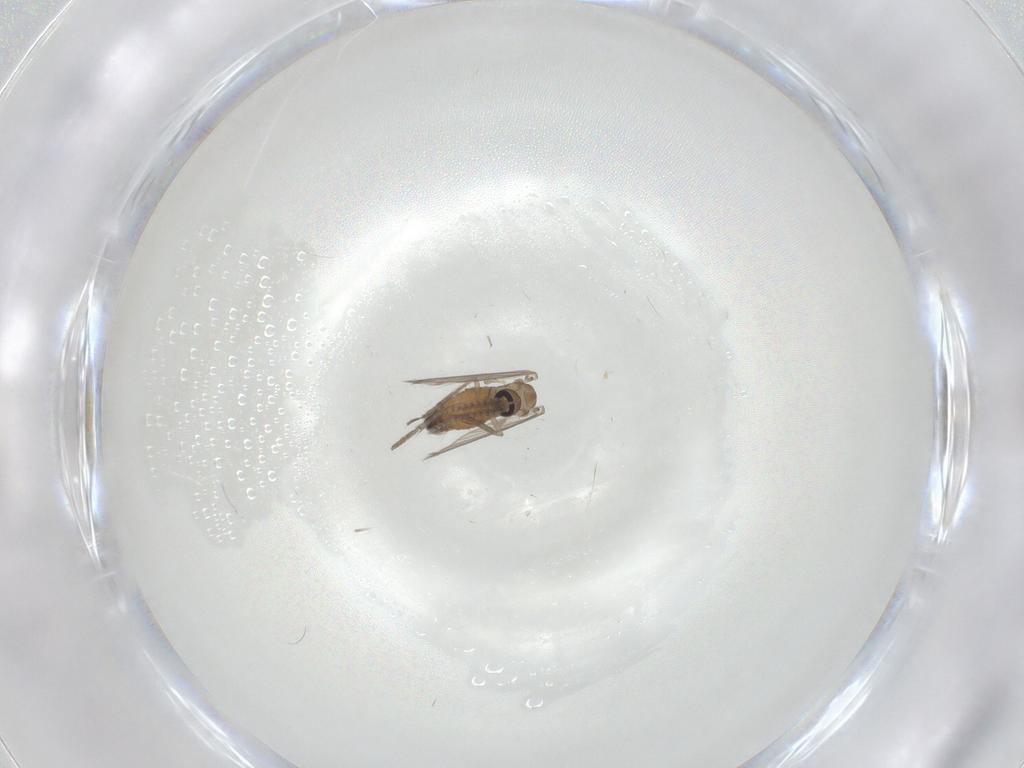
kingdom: Animalia
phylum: Arthropoda
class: Insecta
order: Diptera
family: Psychodidae
